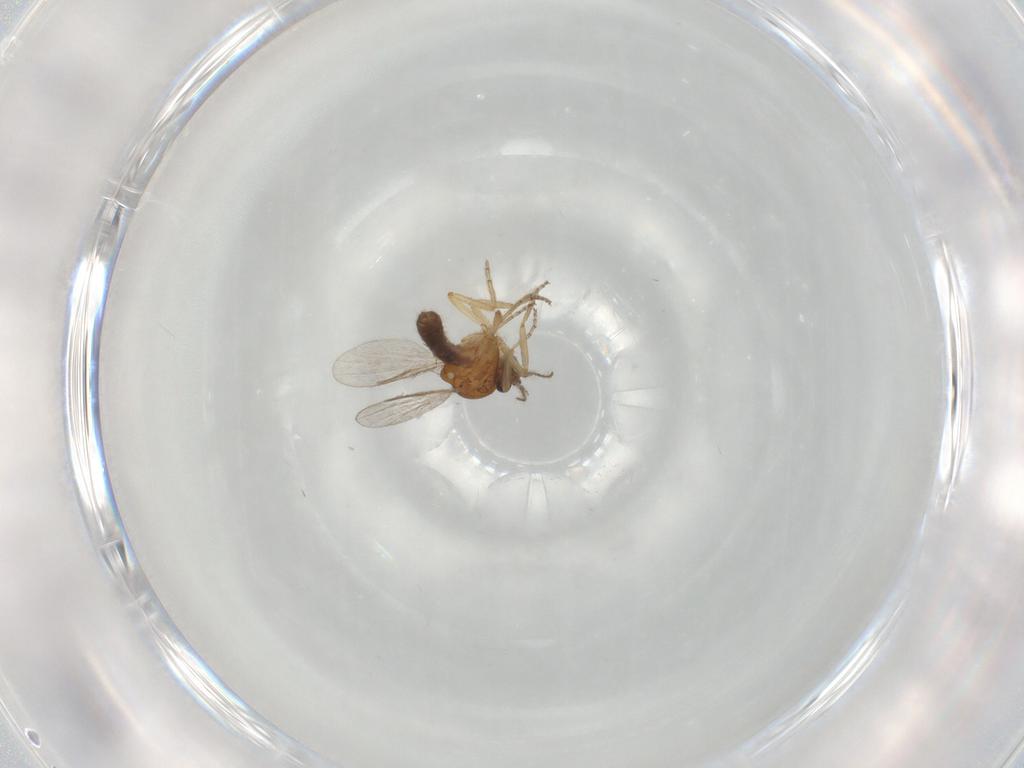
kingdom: Animalia
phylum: Arthropoda
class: Insecta
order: Diptera
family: Ceratopogonidae
